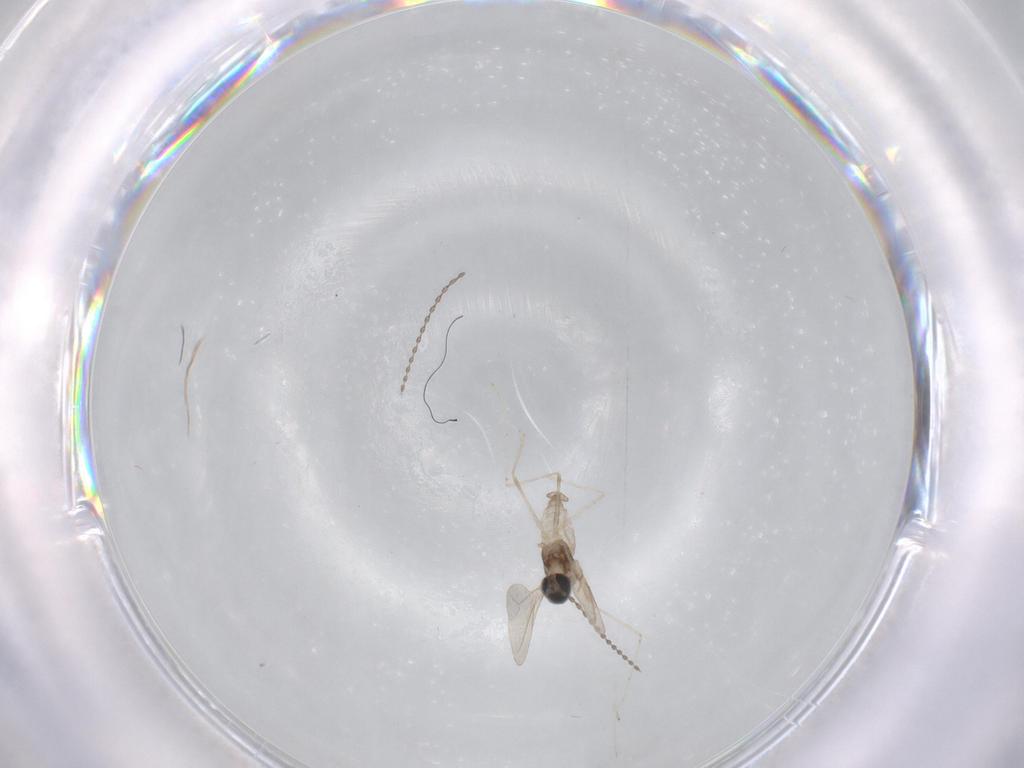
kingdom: Animalia
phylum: Arthropoda
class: Insecta
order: Diptera
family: Cecidomyiidae
